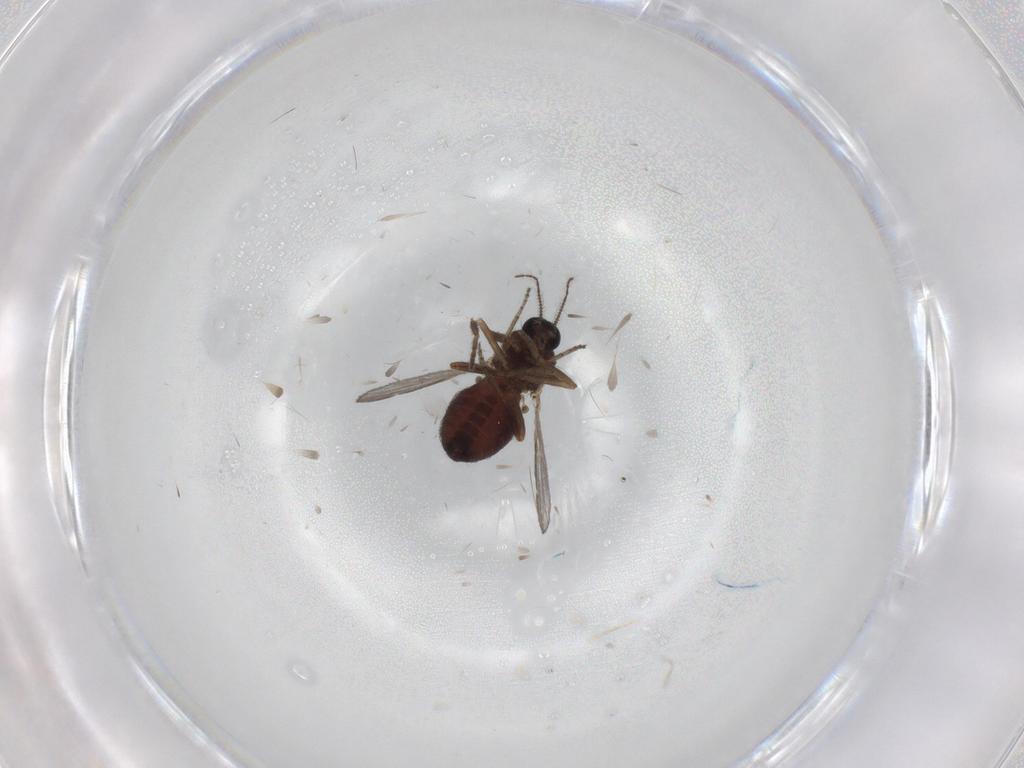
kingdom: Animalia
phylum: Arthropoda
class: Insecta
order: Diptera
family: Ceratopogonidae
